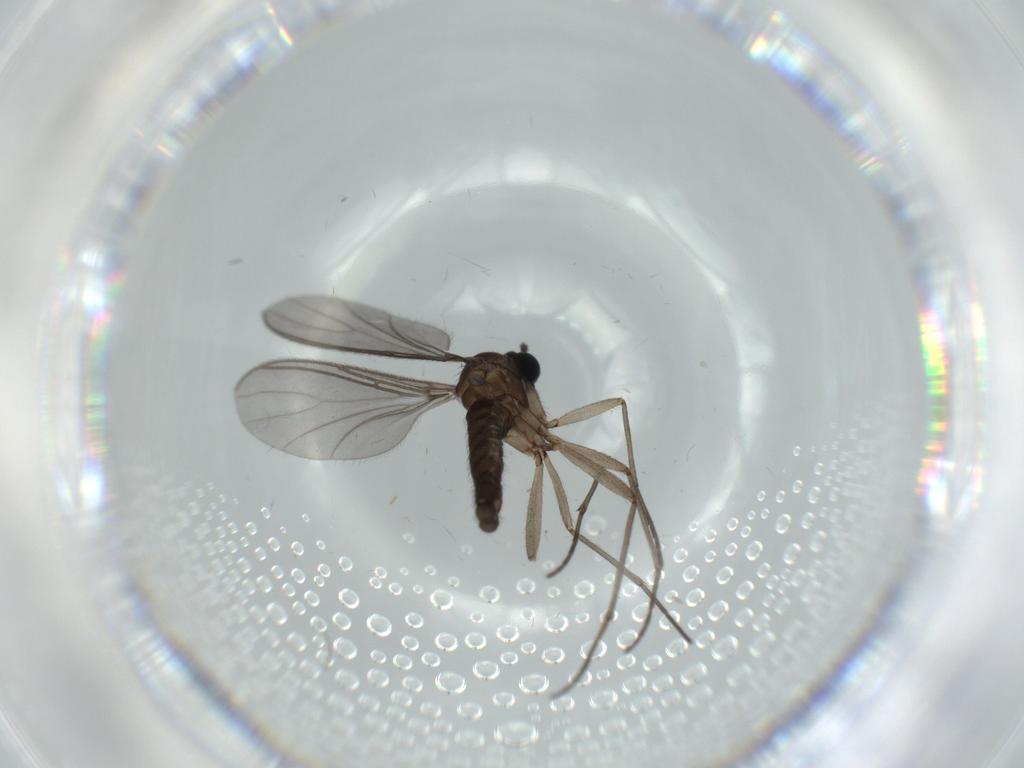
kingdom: Animalia
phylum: Arthropoda
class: Insecta
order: Diptera
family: Sciaridae
